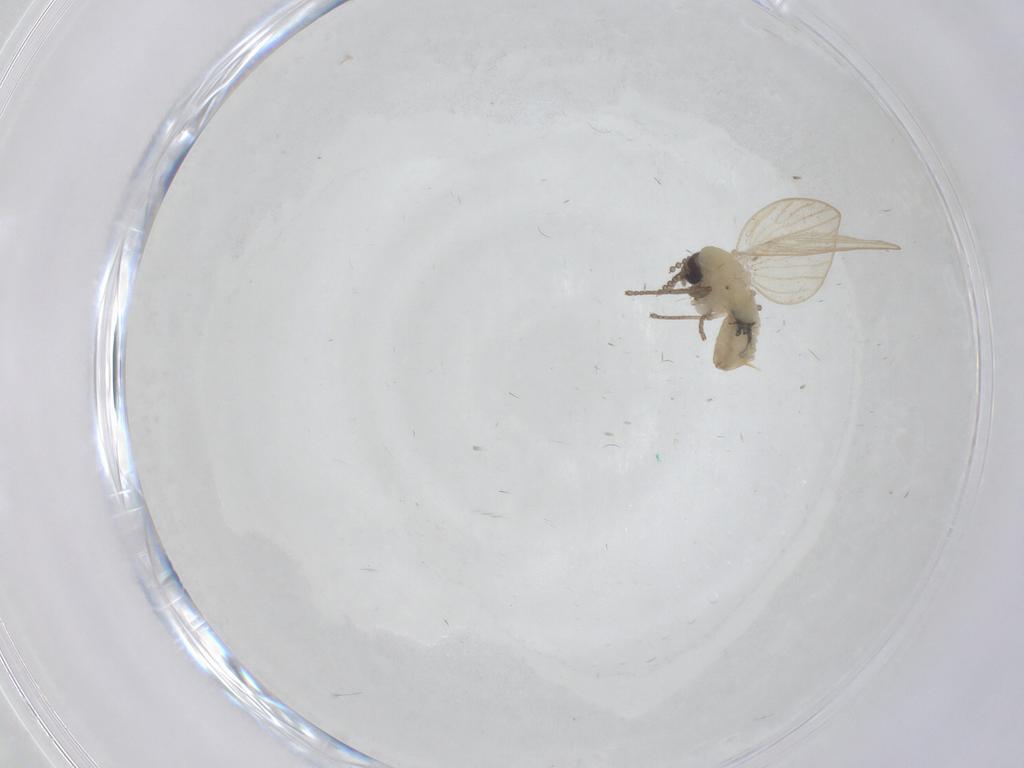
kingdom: Animalia
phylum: Arthropoda
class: Insecta
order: Diptera
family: Psychodidae
